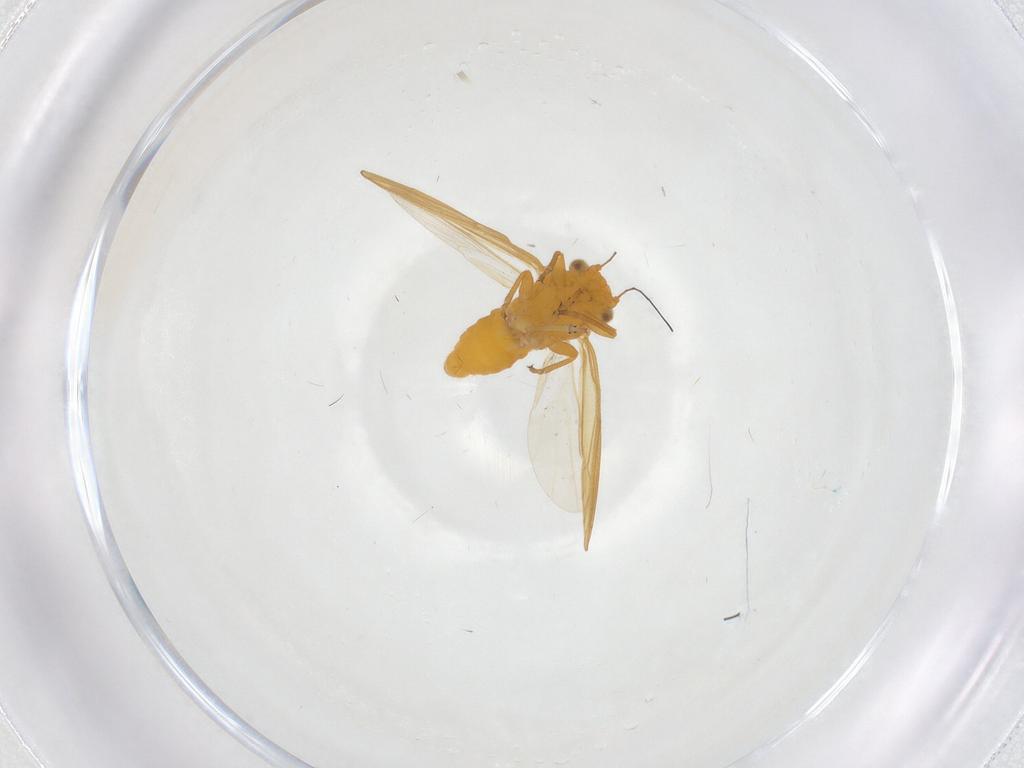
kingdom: Animalia
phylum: Arthropoda
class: Insecta
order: Hemiptera
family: Psyllidae
